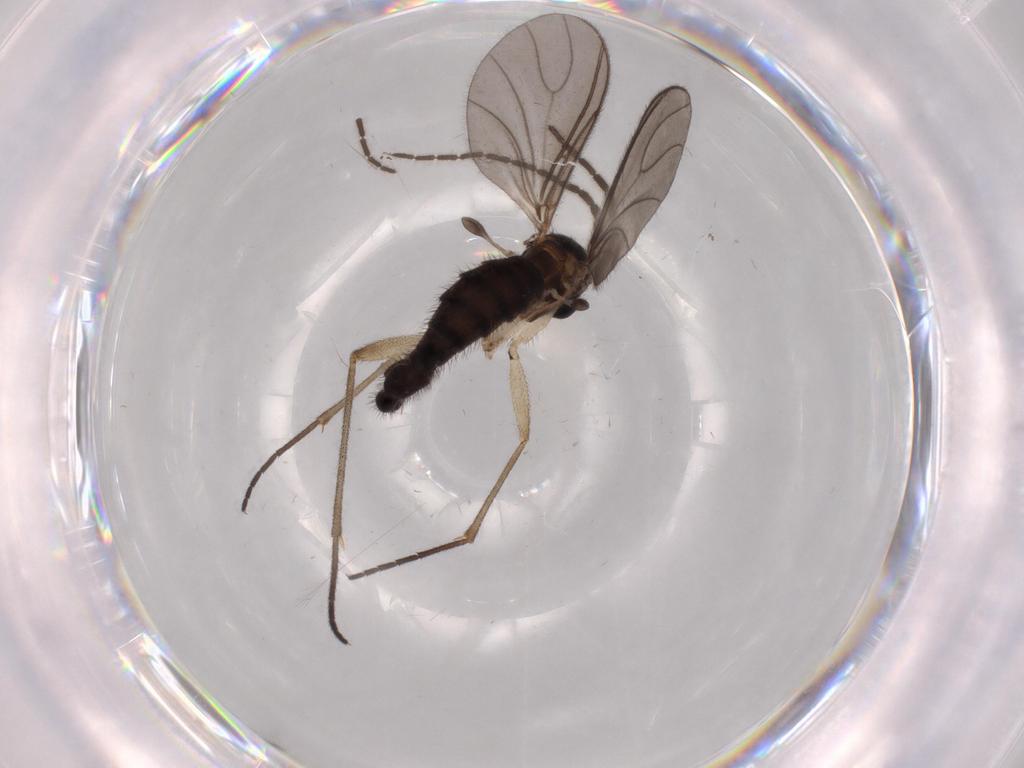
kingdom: Animalia
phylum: Arthropoda
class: Insecta
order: Diptera
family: Sciaridae
